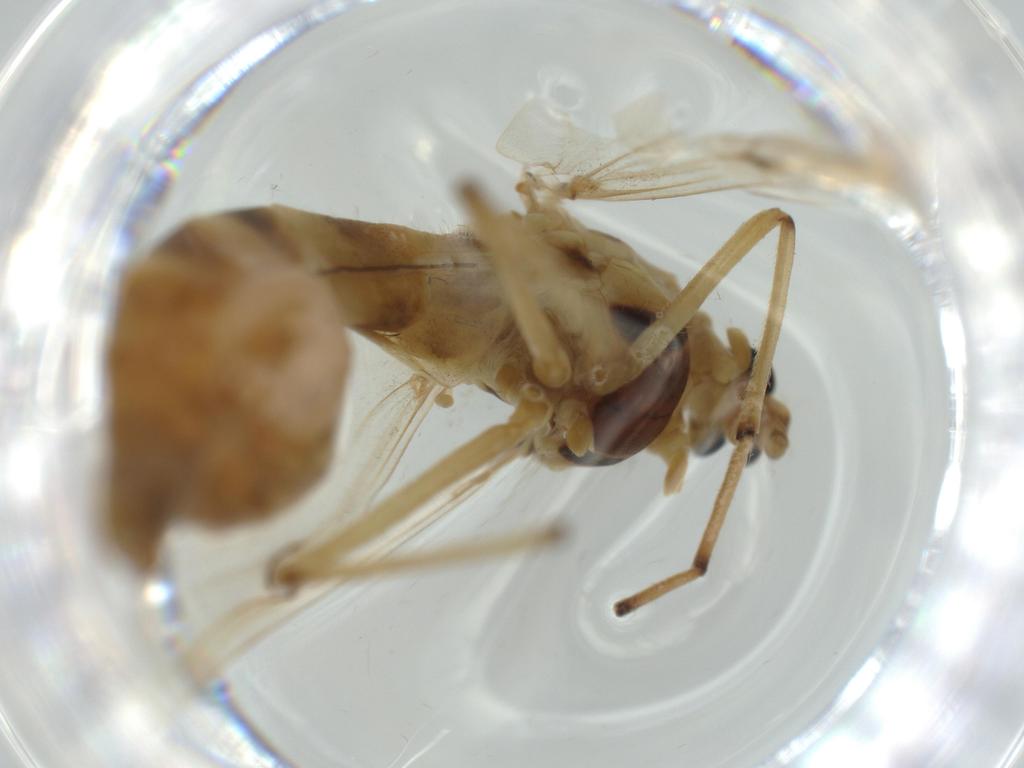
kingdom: Animalia
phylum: Arthropoda
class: Insecta
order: Diptera
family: Chironomidae
